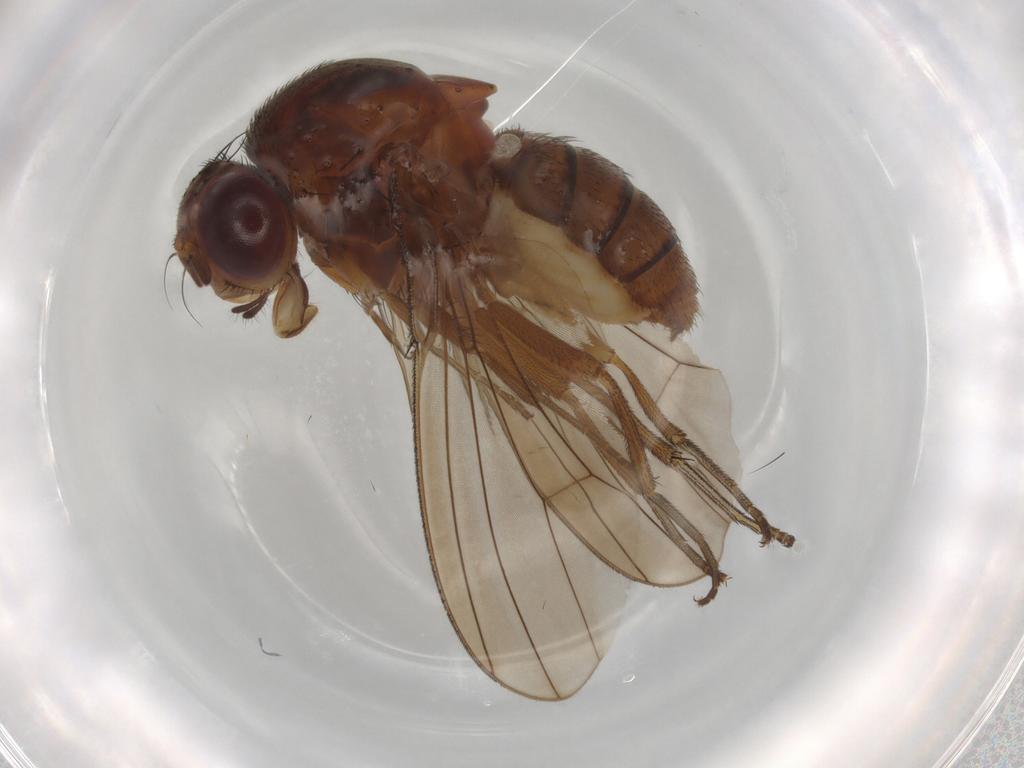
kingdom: Animalia
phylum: Arthropoda
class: Insecta
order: Diptera
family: Curtonotidae
